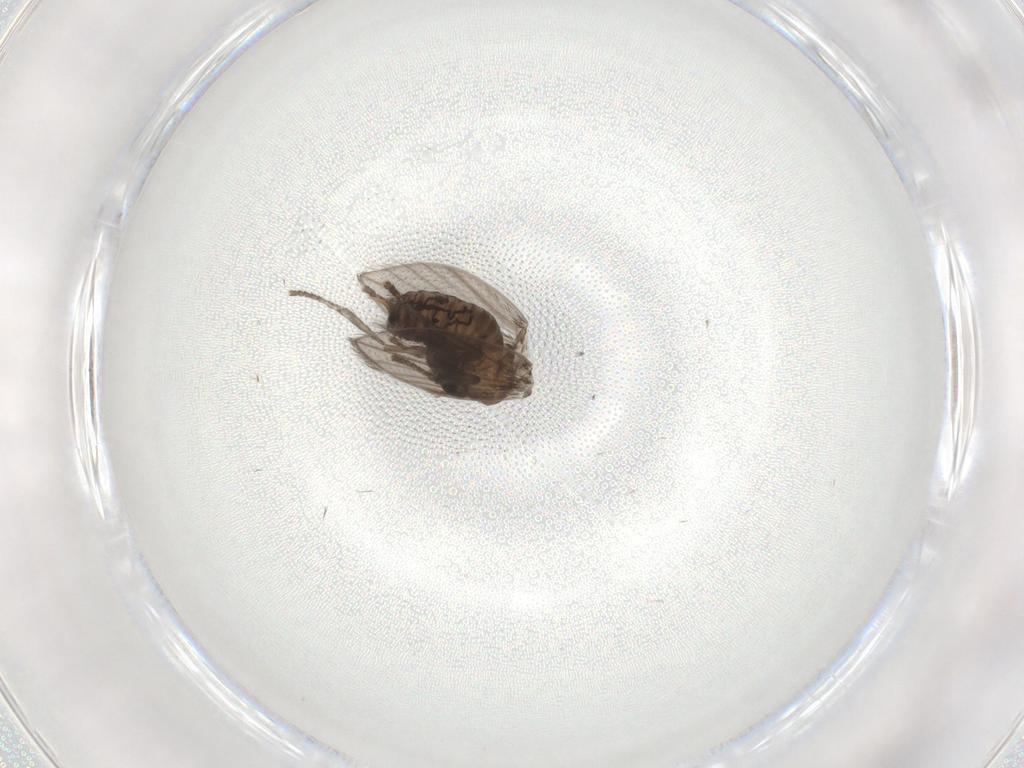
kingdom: Animalia
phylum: Arthropoda
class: Insecta
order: Diptera
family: Psychodidae
